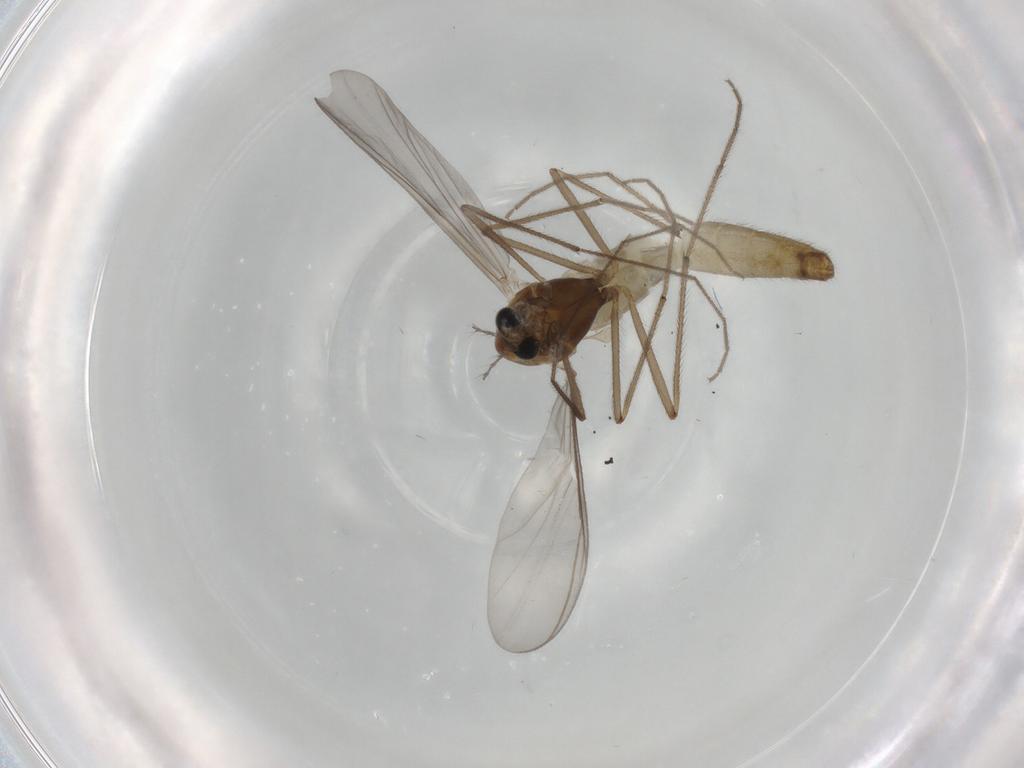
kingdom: Animalia
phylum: Arthropoda
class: Insecta
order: Diptera
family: Chironomidae
